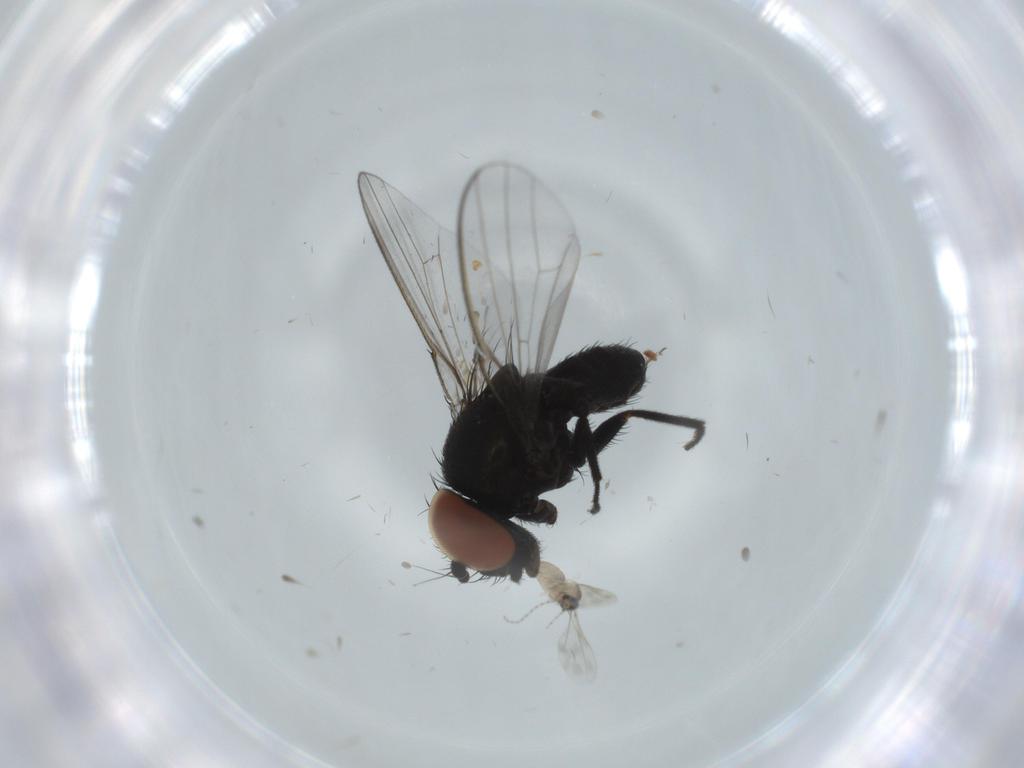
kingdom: Animalia
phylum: Arthropoda
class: Insecta
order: Diptera
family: Milichiidae
